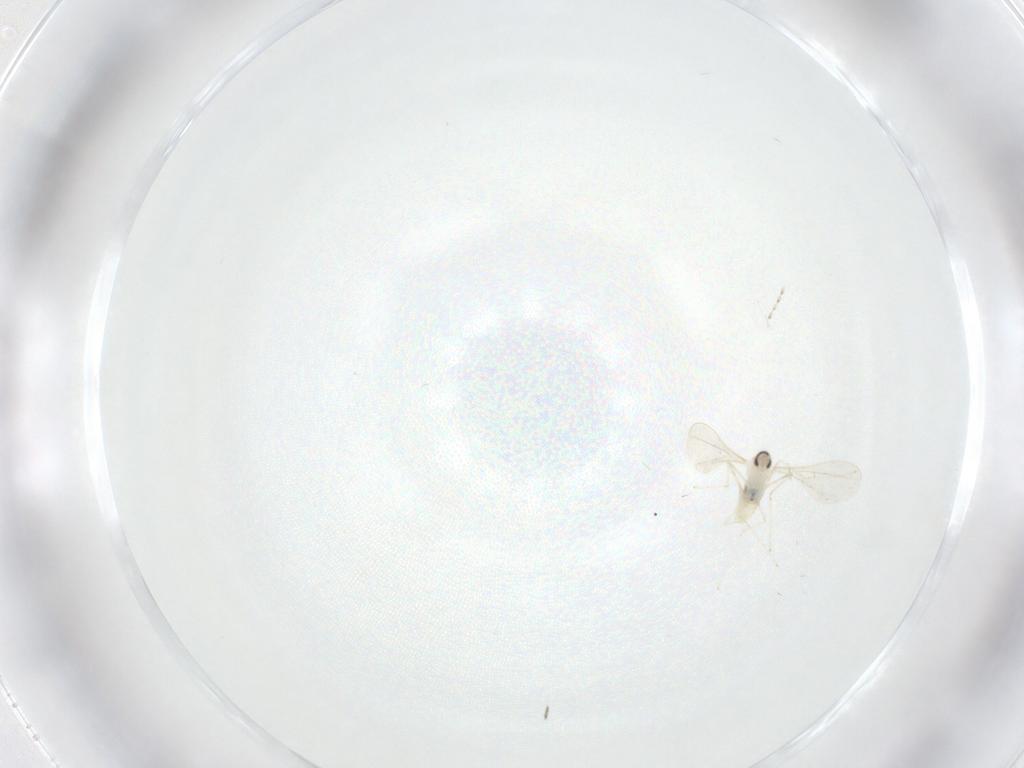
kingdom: Animalia
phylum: Arthropoda
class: Insecta
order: Diptera
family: Cecidomyiidae
